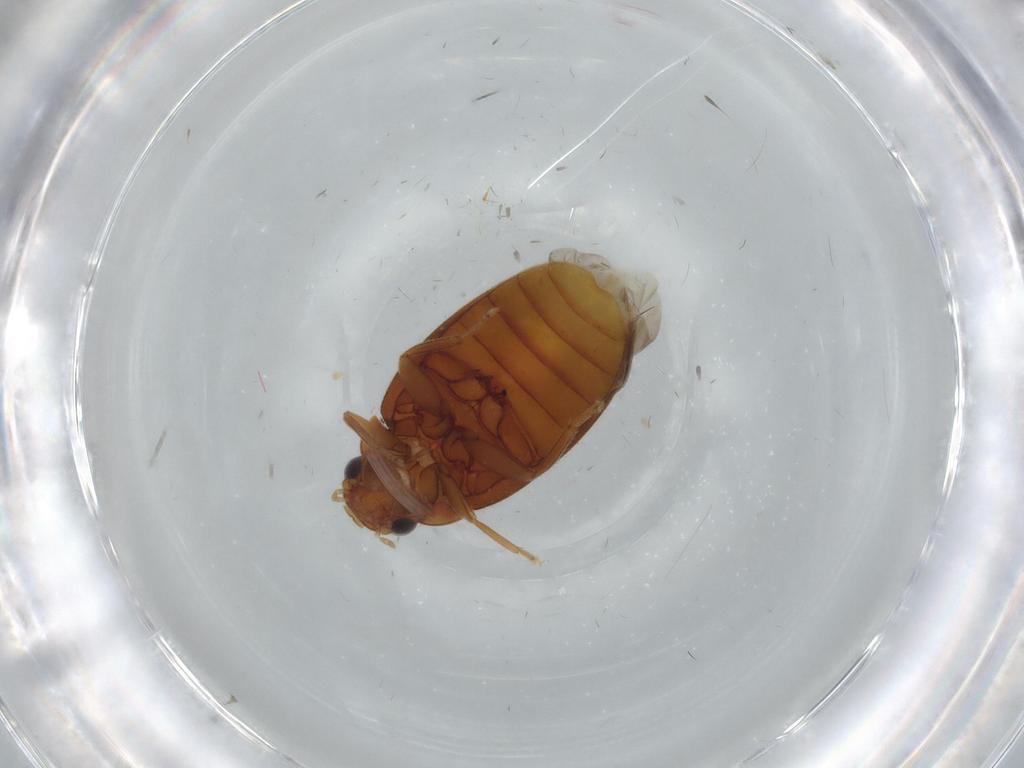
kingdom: Animalia
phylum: Arthropoda
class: Insecta
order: Coleoptera
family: Scirtidae
